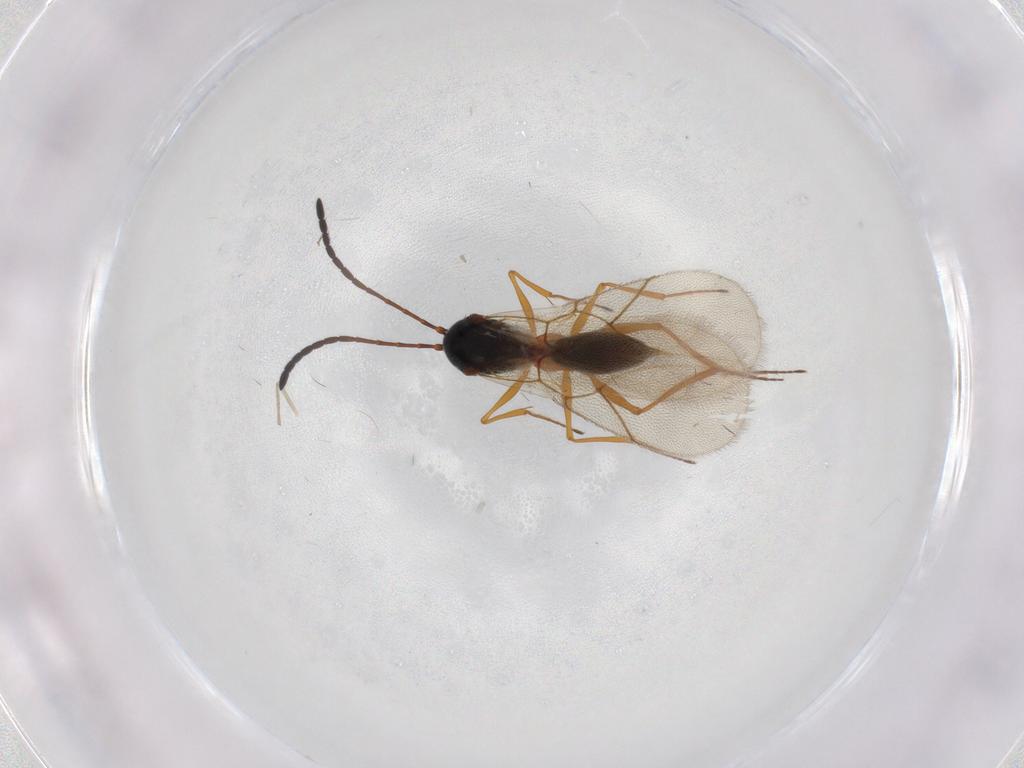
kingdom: Animalia
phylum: Arthropoda
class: Insecta
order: Hymenoptera
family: Figitidae
